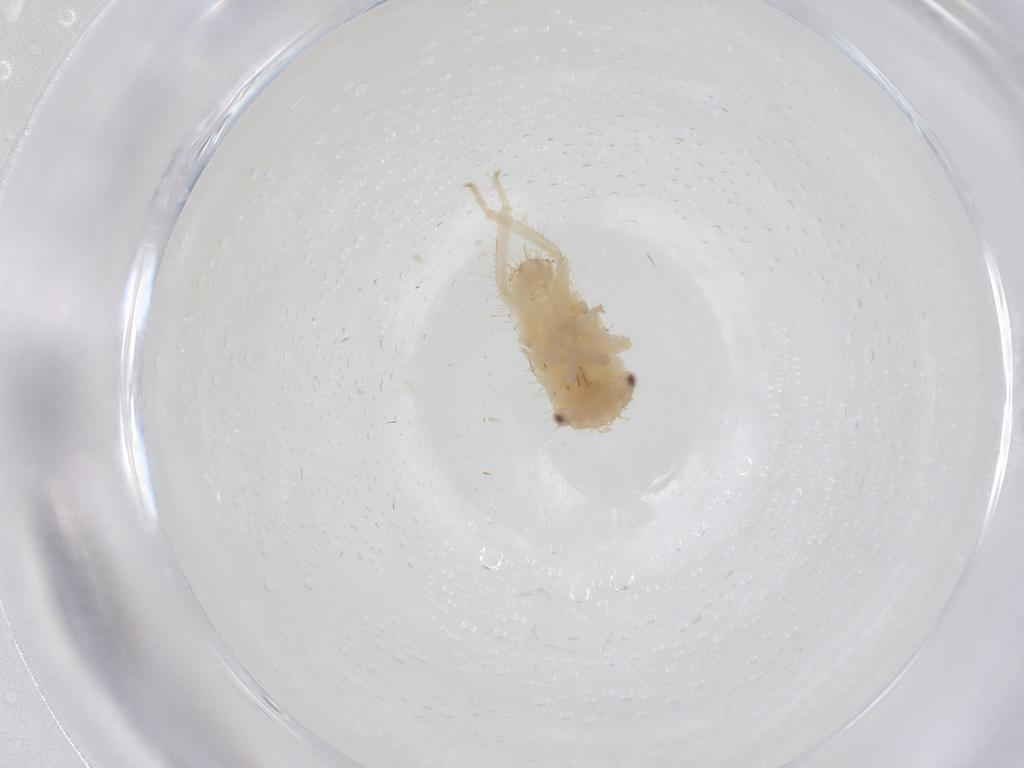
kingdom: Animalia
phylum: Arthropoda
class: Insecta
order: Hemiptera
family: Cicadellidae
